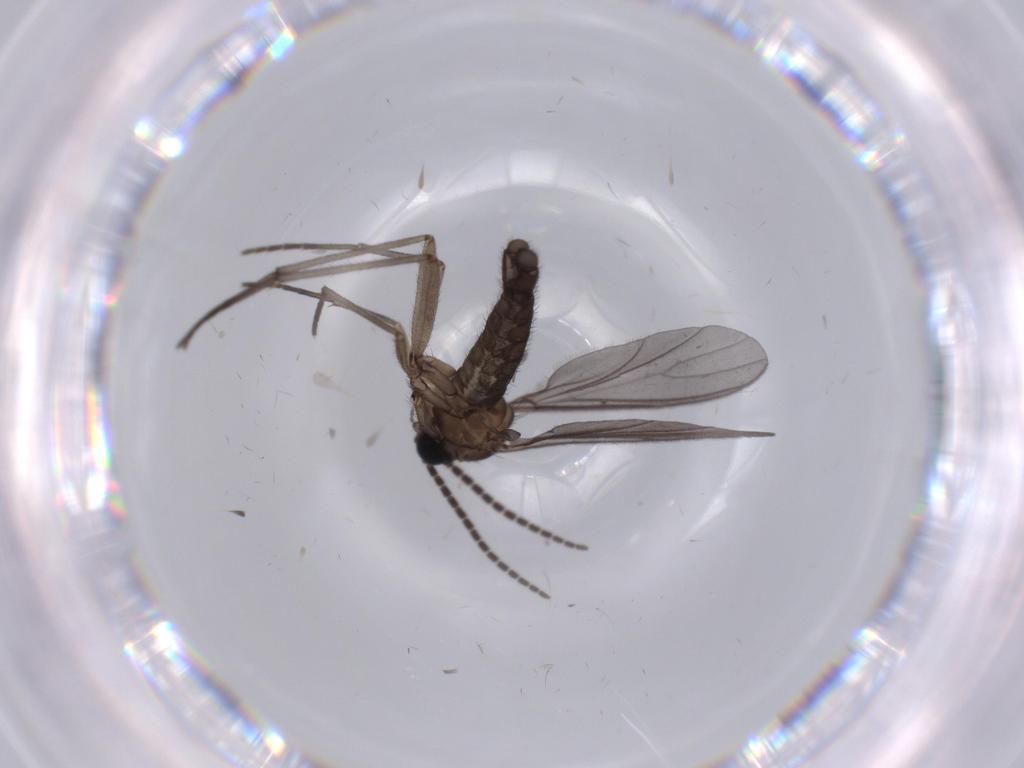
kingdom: Animalia
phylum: Arthropoda
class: Insecta
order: Diptera
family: Sciaridae
